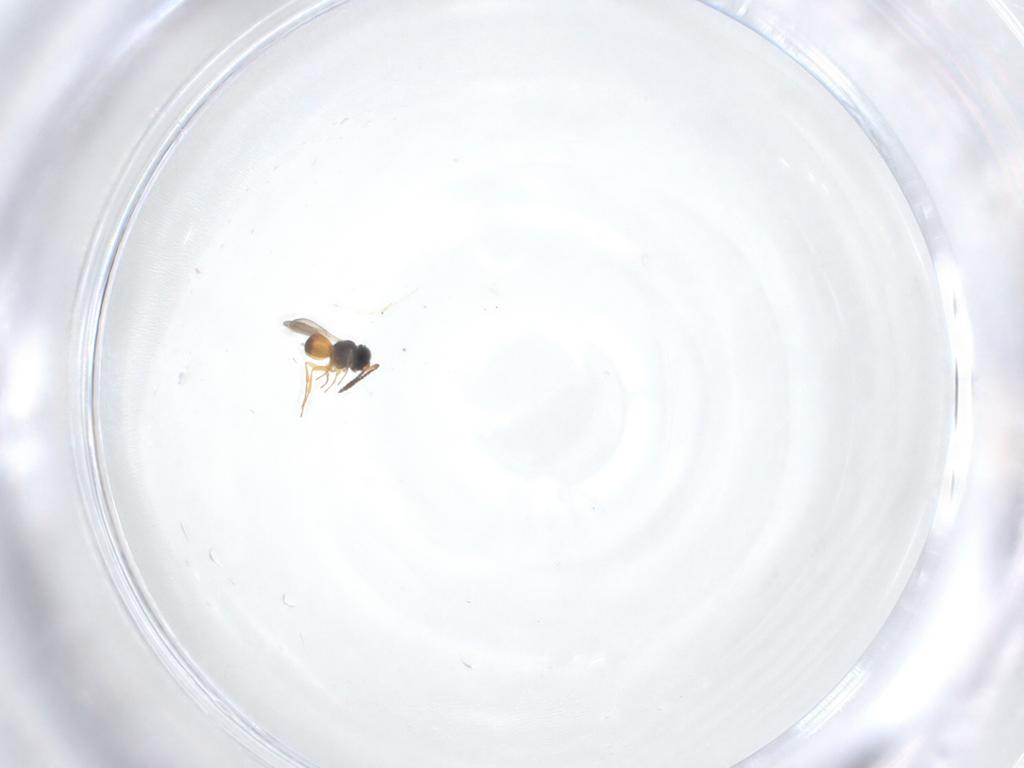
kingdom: Animalia
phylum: Arthropoda
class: Insecta
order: Hymenoptera
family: Scelionidae
